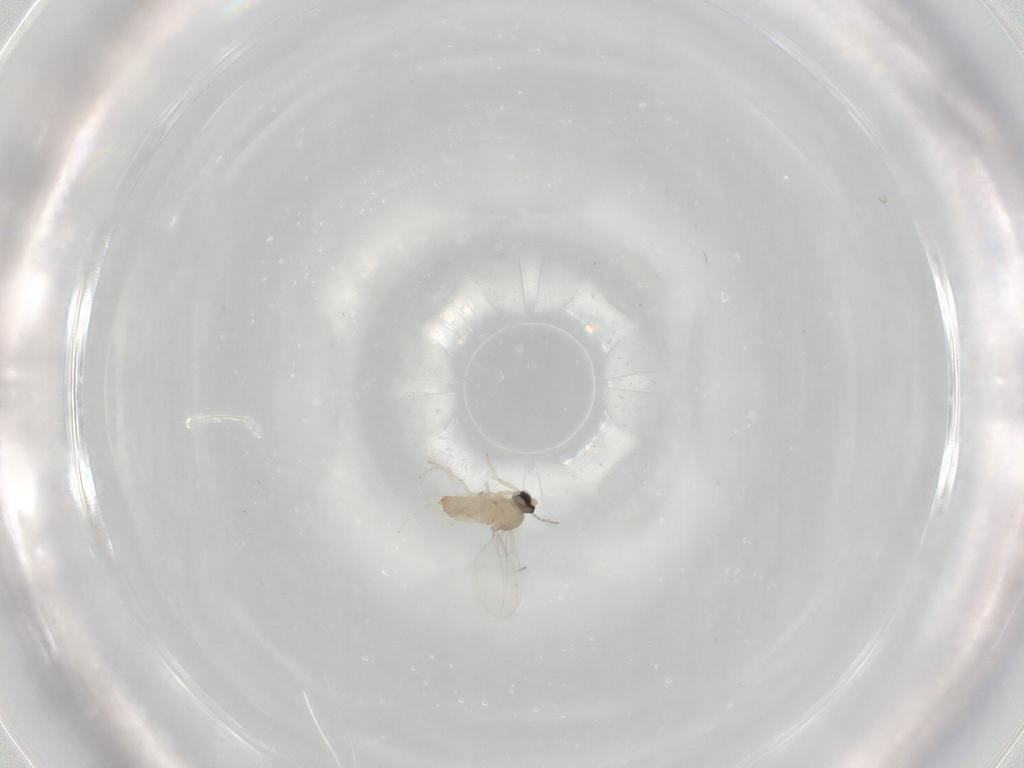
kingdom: Animalia
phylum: Arthropoda
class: Insecta
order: Diptera
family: Cecidomyiidae
